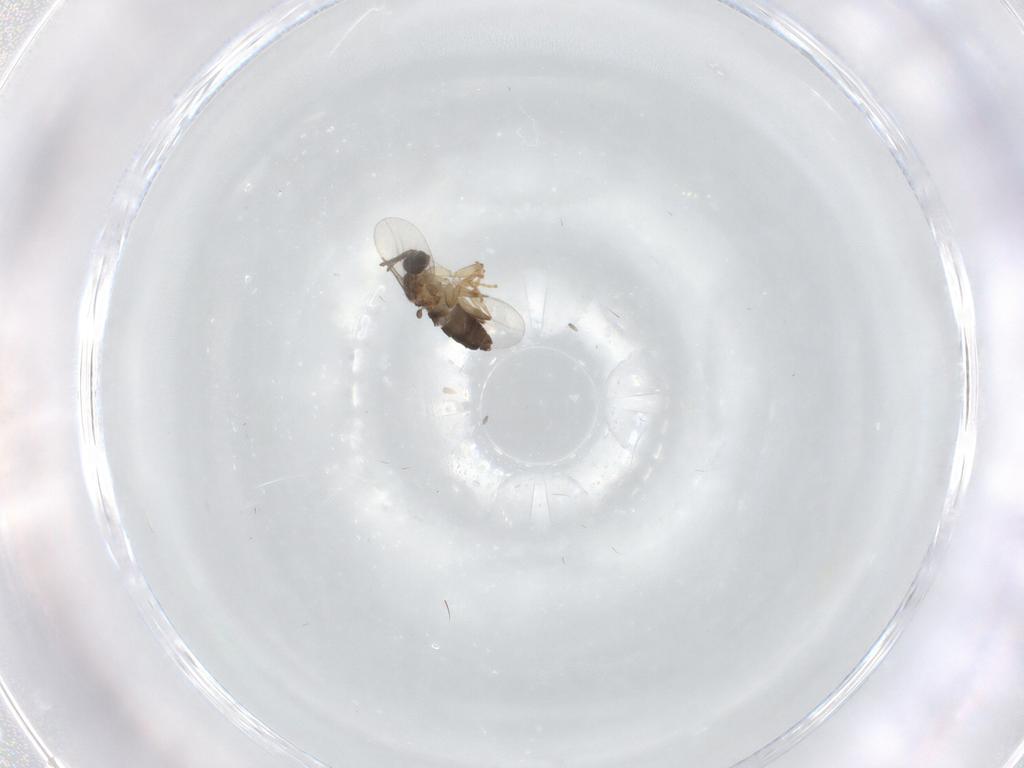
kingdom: Animalia
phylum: Arthropoda
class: Insecta
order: Diptera
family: Scatopsidae
